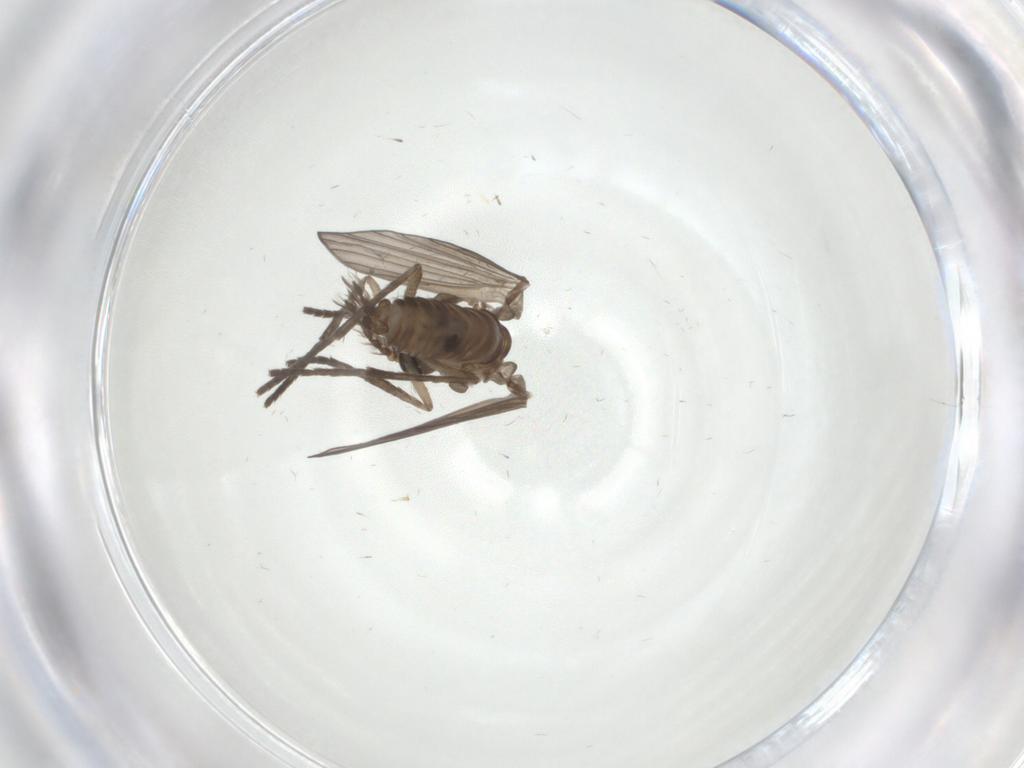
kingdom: Animalia
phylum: Arthropoda
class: Insecta
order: Diptera
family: Psychodidae
